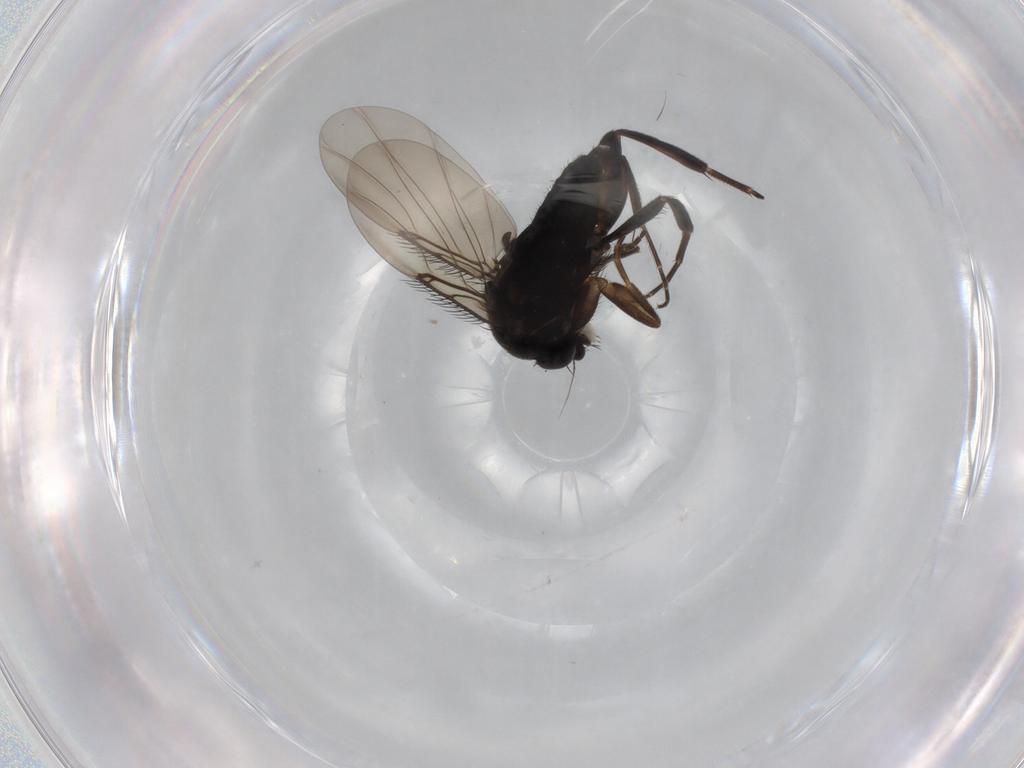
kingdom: Animalia
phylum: Arthropoda
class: Insecta
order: Diptera
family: Phoridae
